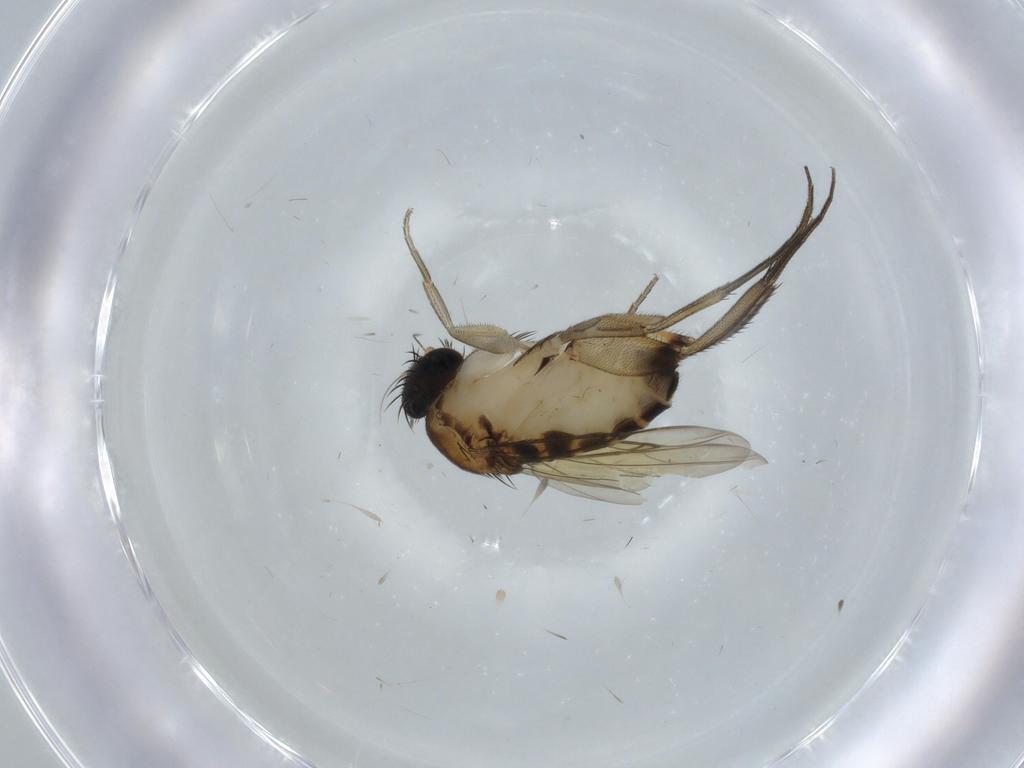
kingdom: Animalia
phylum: Arthropoda
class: Insecta
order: Diptera
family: Phoridae
